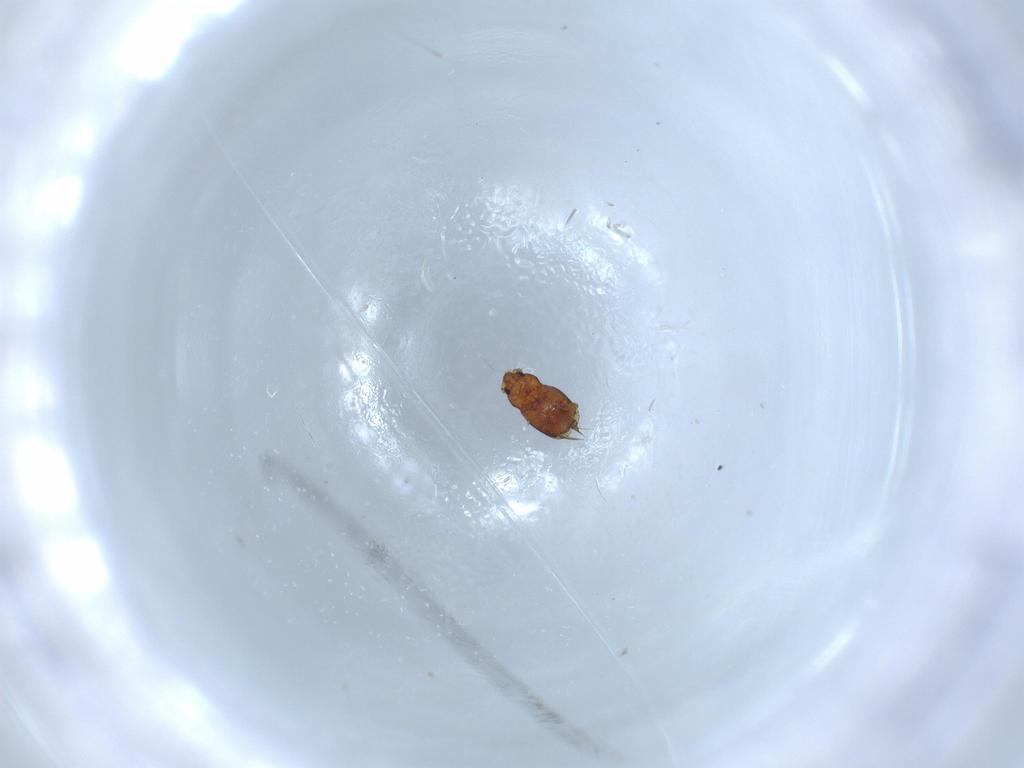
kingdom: Animalia
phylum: Arthropoda
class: Insecta
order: Coleoptera
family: Ptiliidae
